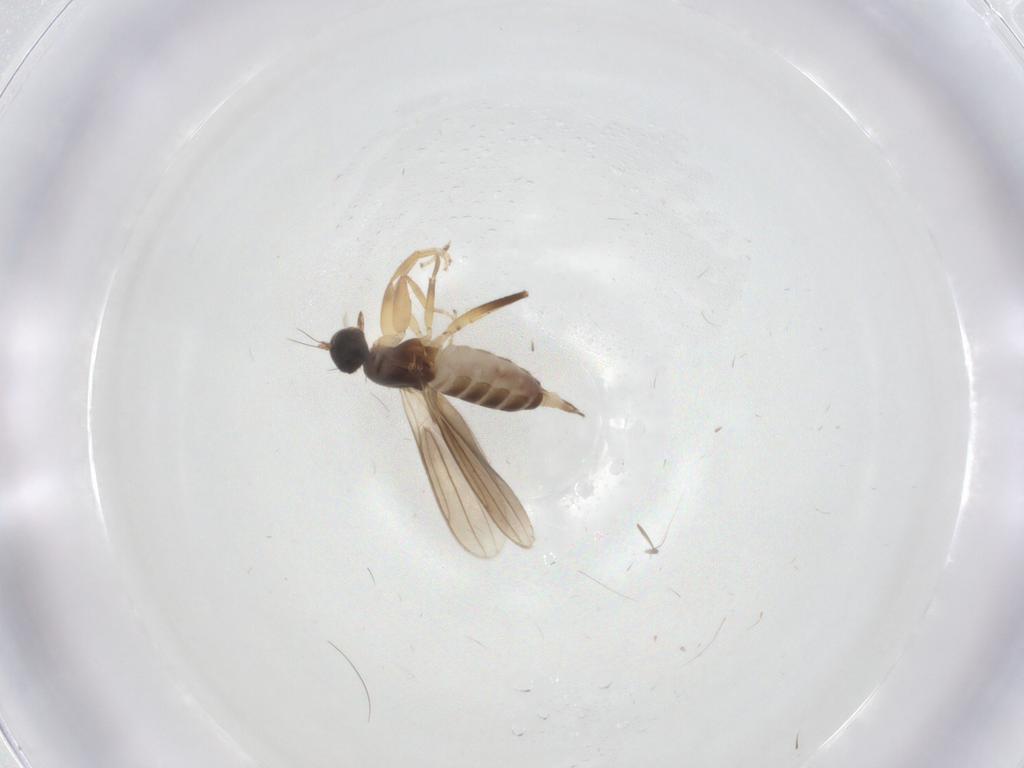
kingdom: Animalia
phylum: Arthropoda
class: Insecta
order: Diptera
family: Hybotidae
